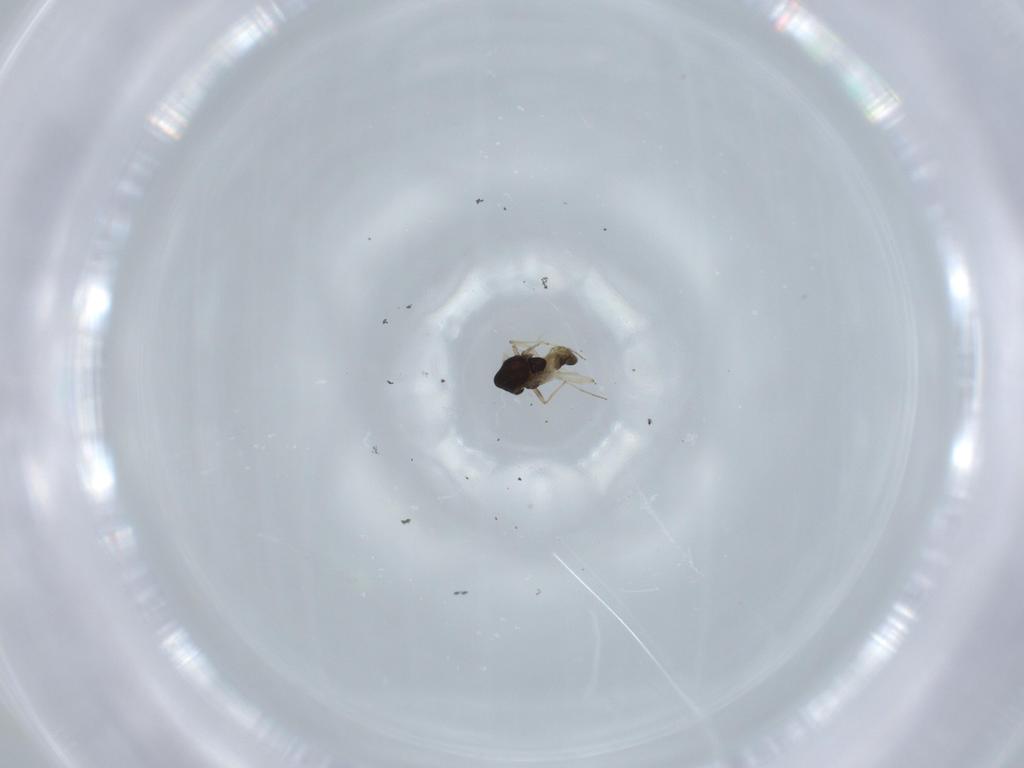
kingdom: Animalia
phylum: Arthropoda
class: Insecta
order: Diptera
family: Chironomidae
